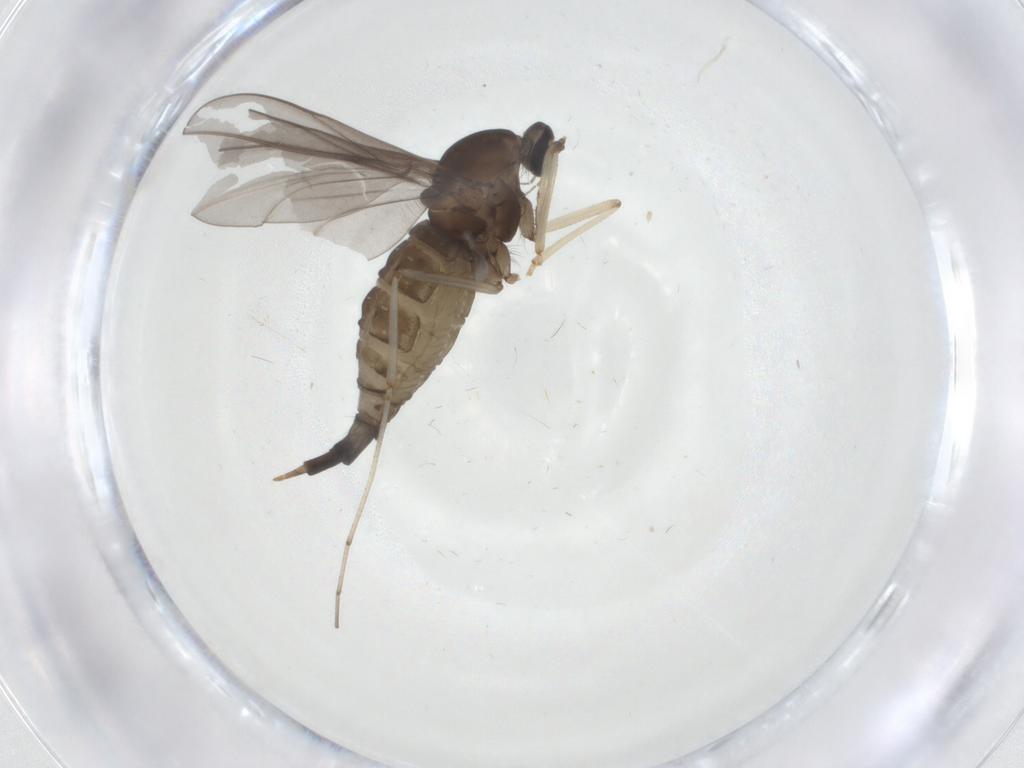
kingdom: Animalia
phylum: Arthropoda
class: Insecta
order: Diptera
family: Cecidomyiidae
